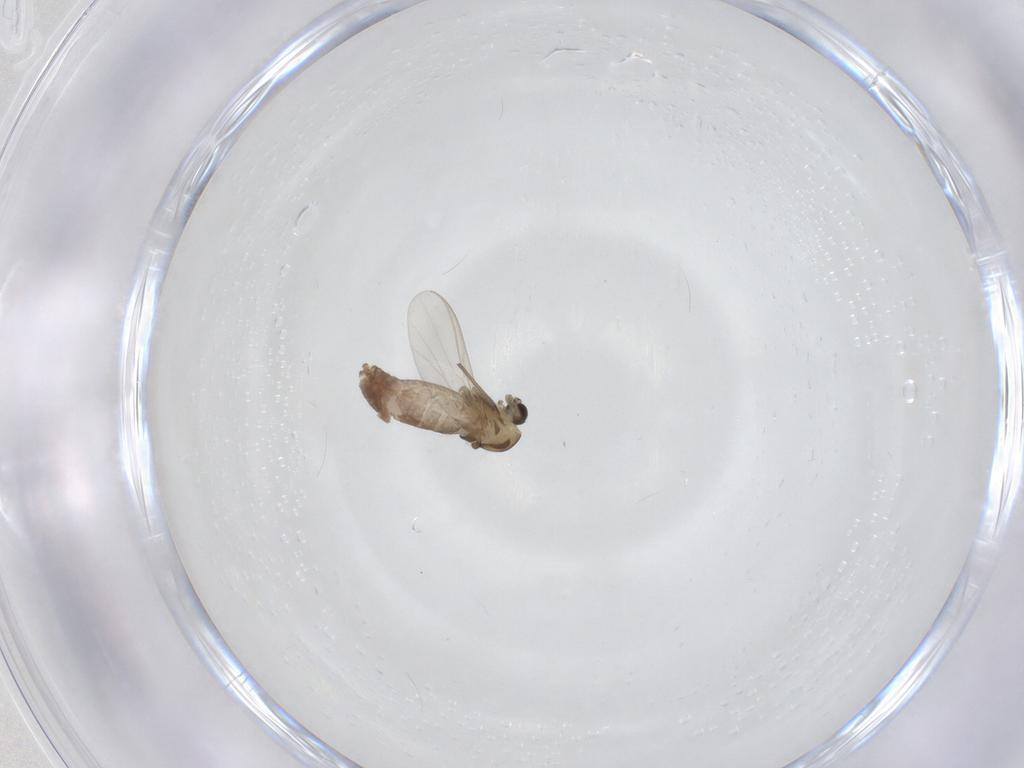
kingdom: Animalia
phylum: Arthropoda
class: Insecta
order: Diptera
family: Chironomidae
